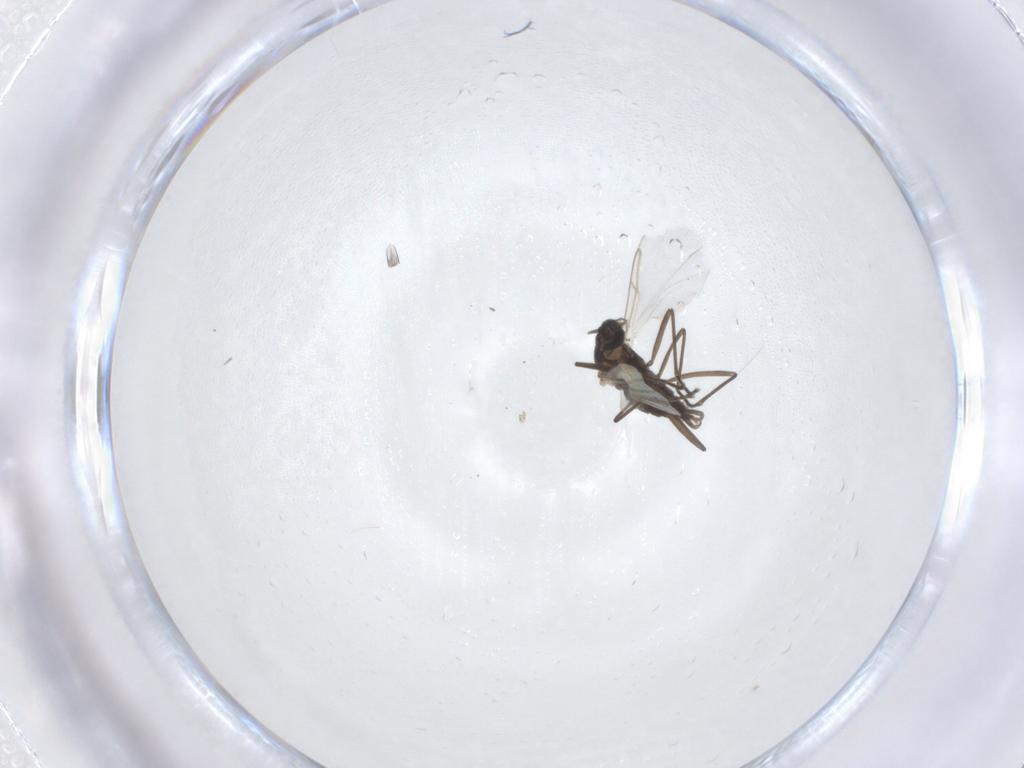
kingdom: Animalia
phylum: Arthropoda
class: Insecta
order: Diptera
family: Cecidomyiidae
